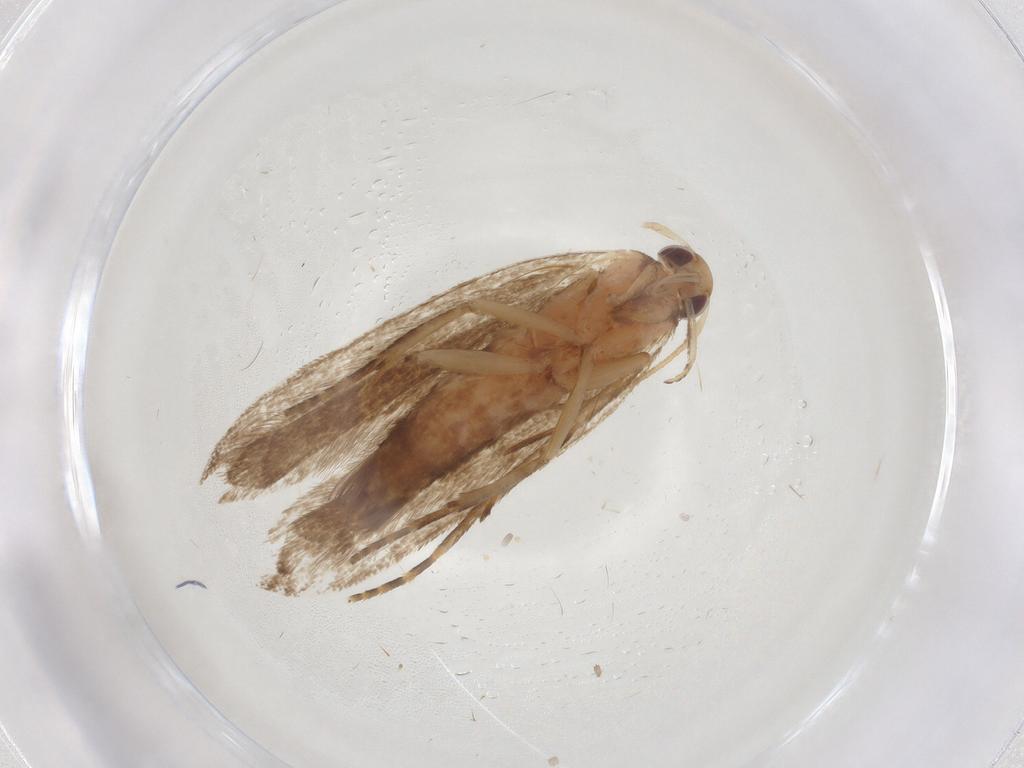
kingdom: Animalia
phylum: Arthropoda
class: Insecta
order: Lepidoptera
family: Gelechiidae
